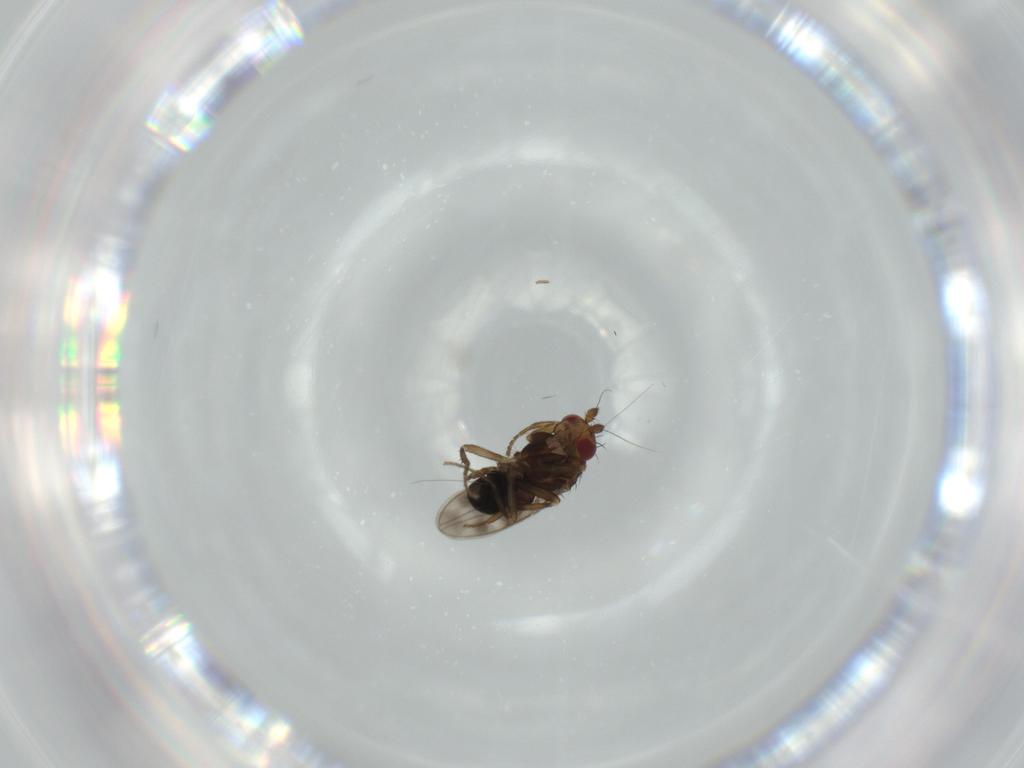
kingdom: Animalia
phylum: Arthropoda
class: Insecta
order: Diptera
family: Sphaeroceridae
